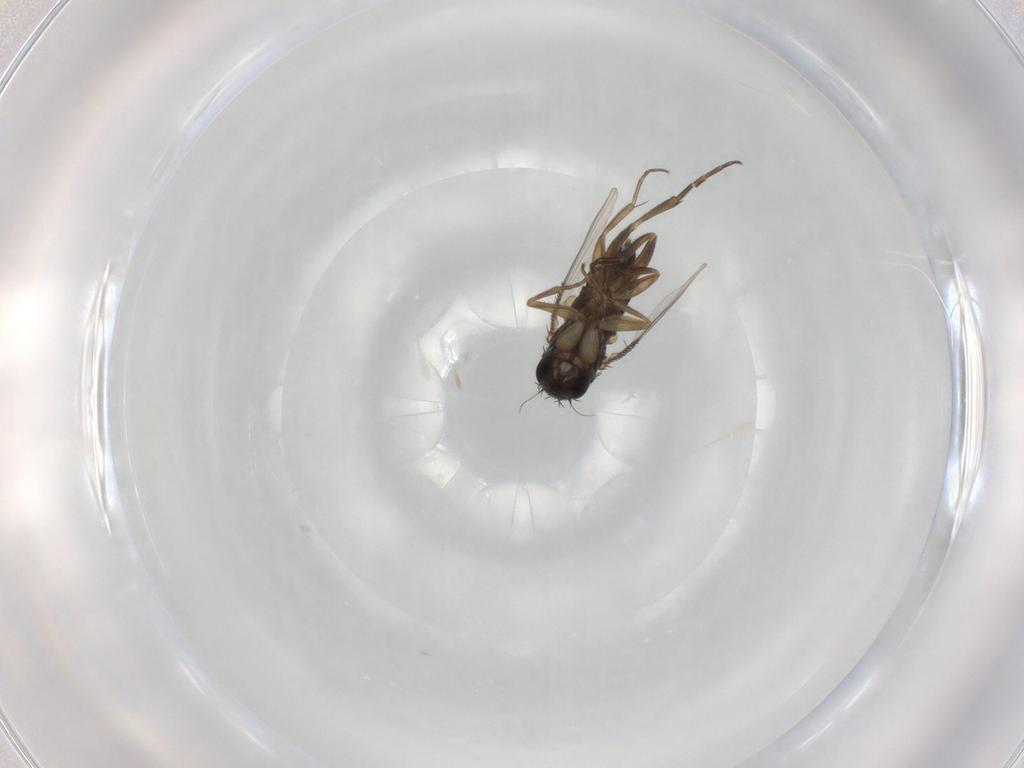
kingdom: Animalia
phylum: Arthropoda
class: Insecta
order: Diptera
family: Phoridae
